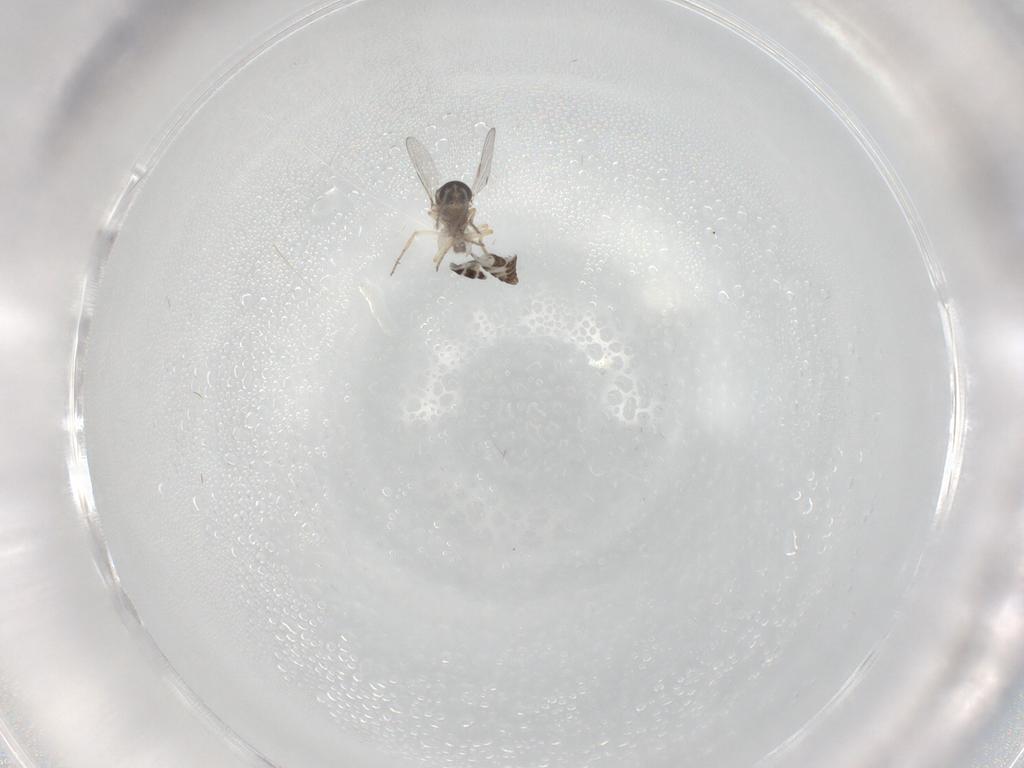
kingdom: Animalia
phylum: Arthropoda
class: Insecta
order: Diptera
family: Ceratopogonidae
